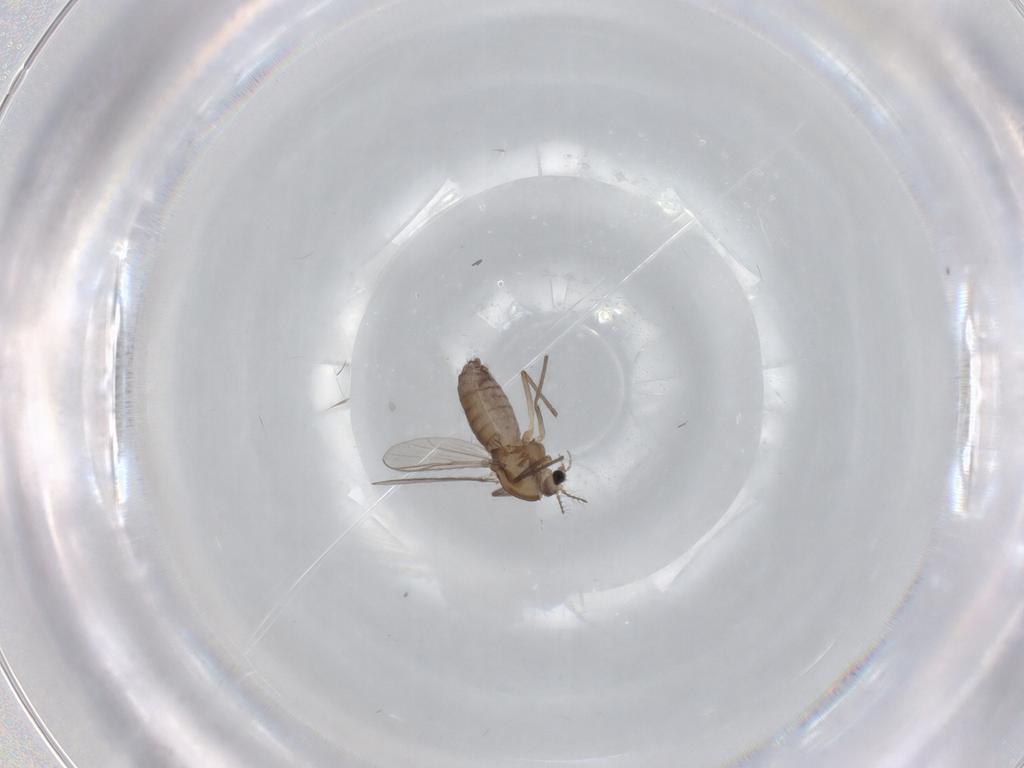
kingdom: Animalia
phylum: Arthropoda
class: Insecta
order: Diptera
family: Chironomidae
